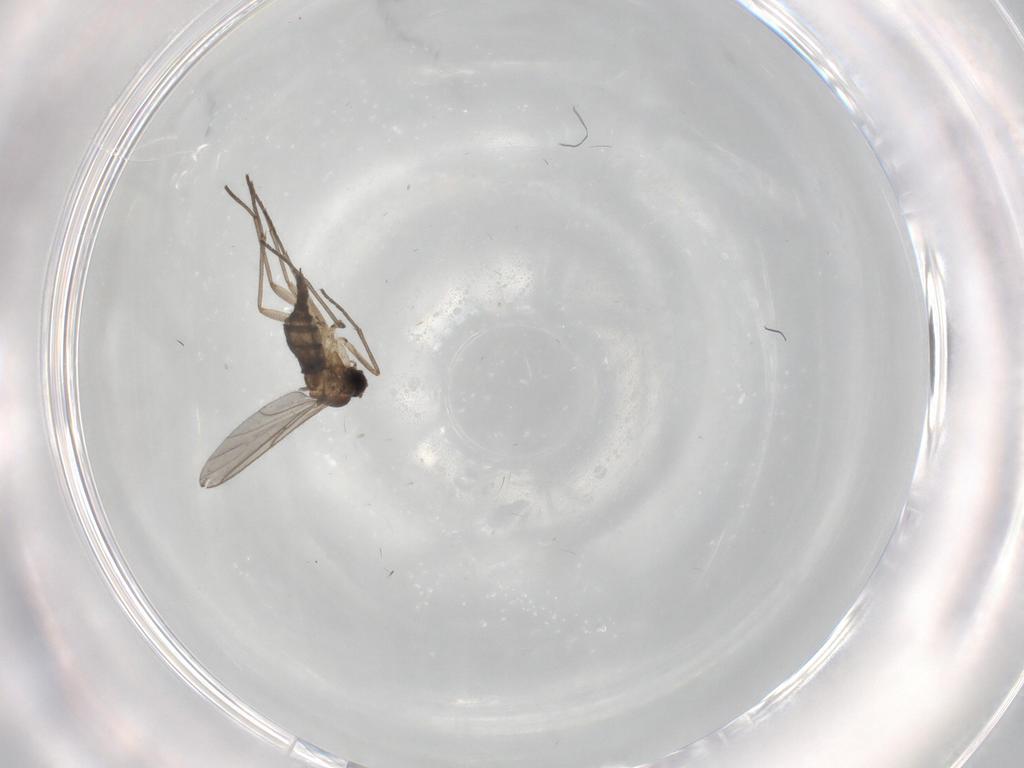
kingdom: Animalia
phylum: Arthropoda
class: Insecta
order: Diptera
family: Sciaridae
